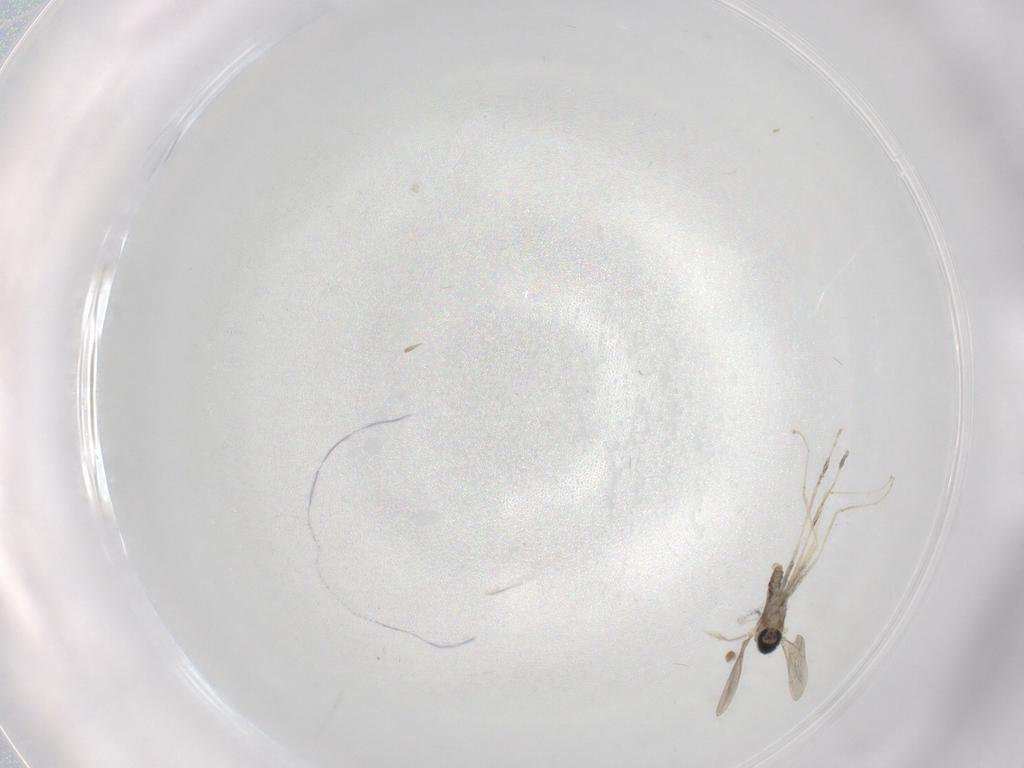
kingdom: Animalia
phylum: Arthropoda
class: Insecta
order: Diptera
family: Cecidomyiidae
